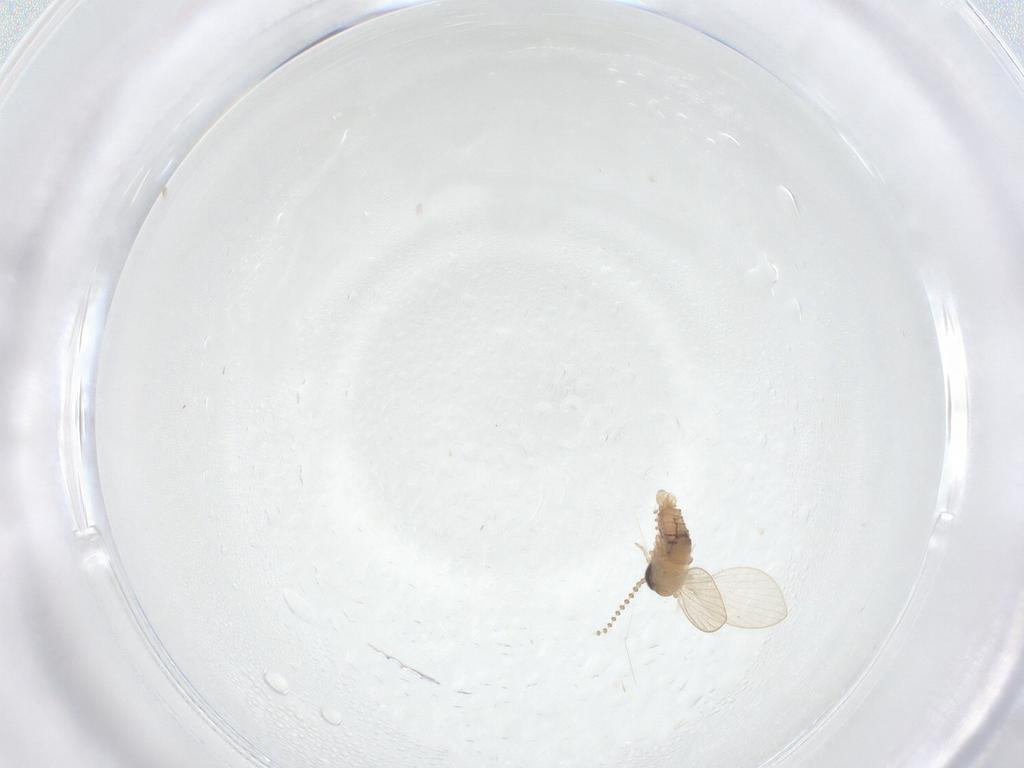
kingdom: Animalia
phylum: Arthropoda
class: Insecta
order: Diptera
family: Psychodidae
